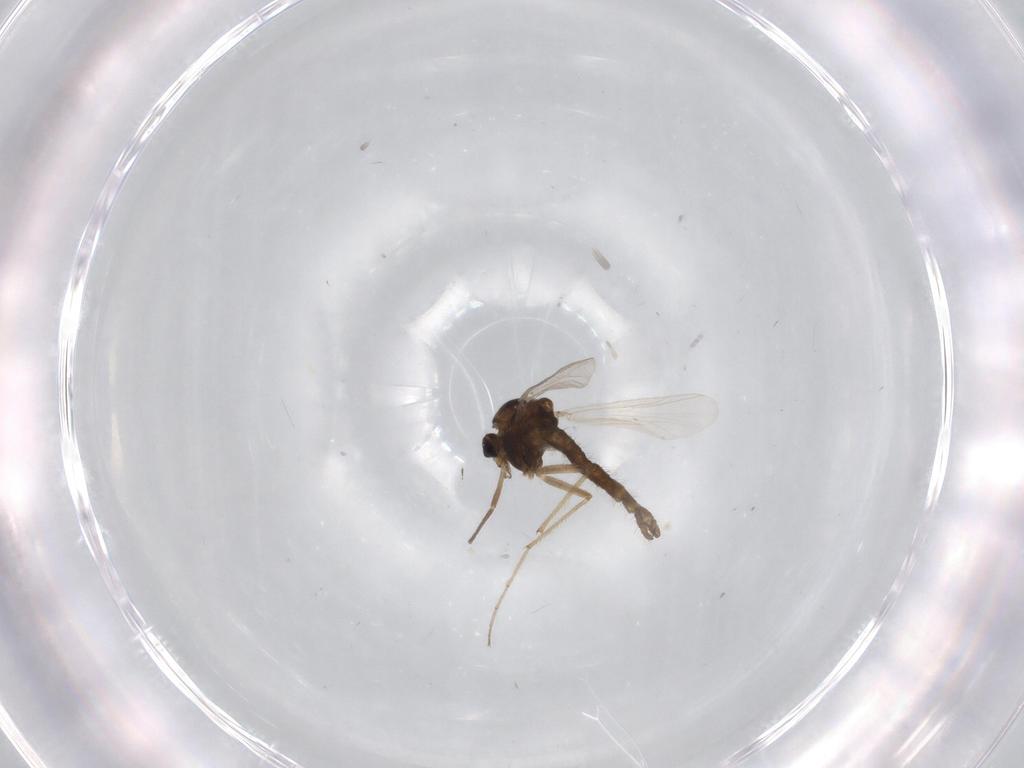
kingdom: Animalia
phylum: Arthropoda
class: Insecta
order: Diptera
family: Chironomidae
